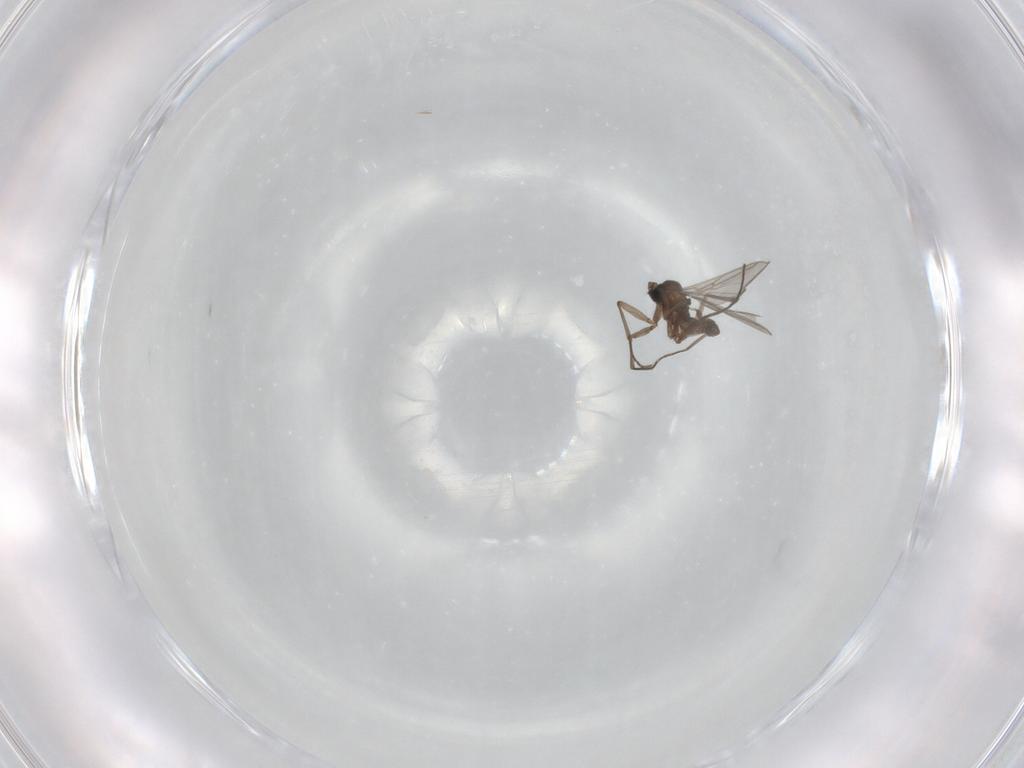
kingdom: Animalia
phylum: Arthropoda
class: Insecta
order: Diptera
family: Sciaridae
